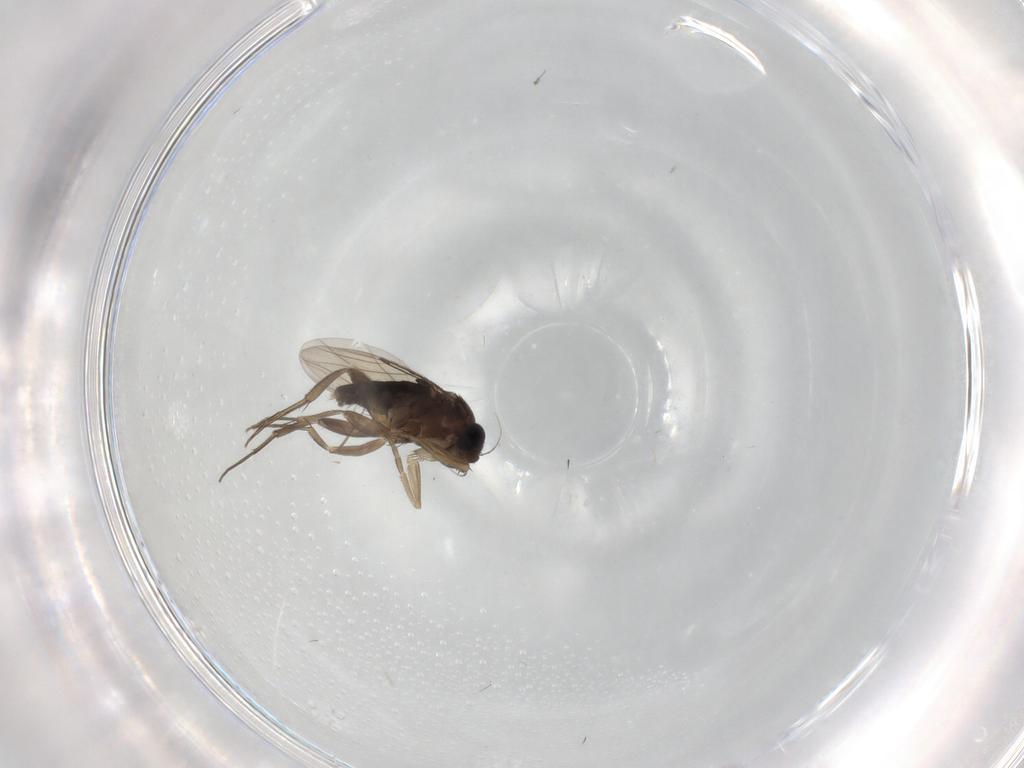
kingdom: Animalia
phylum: Arthropoda
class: Insecta
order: Diptera
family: Phoridae
